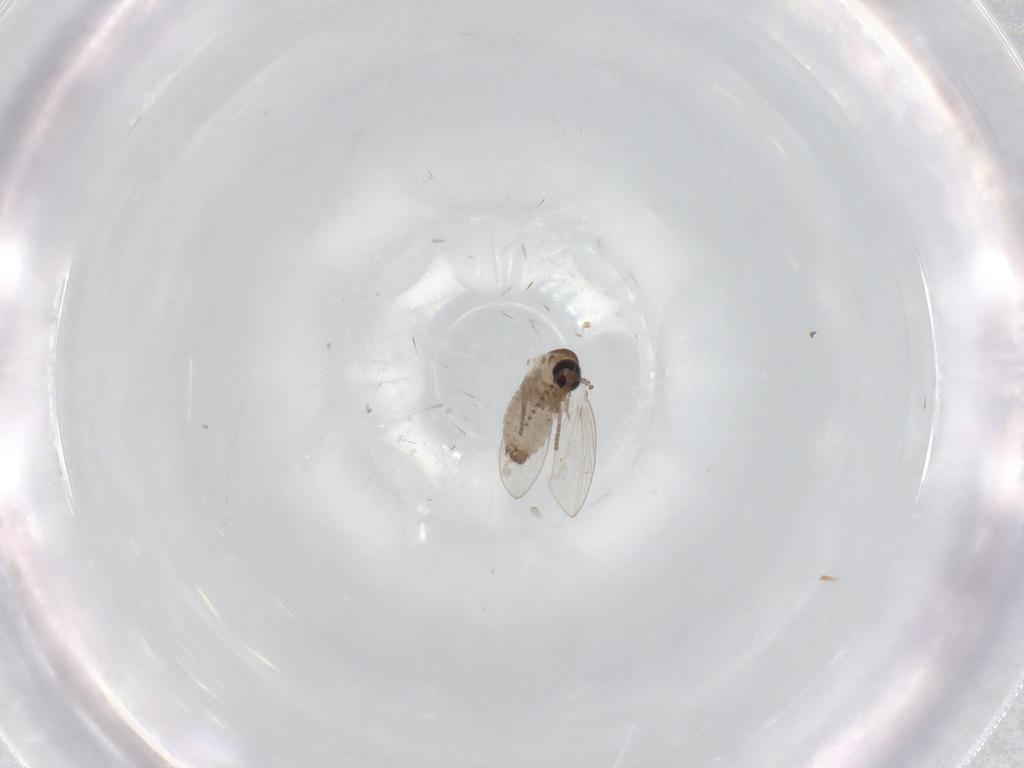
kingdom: Animalia
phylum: Arthropoda
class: Insecta
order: Diptera
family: Psychodidae
